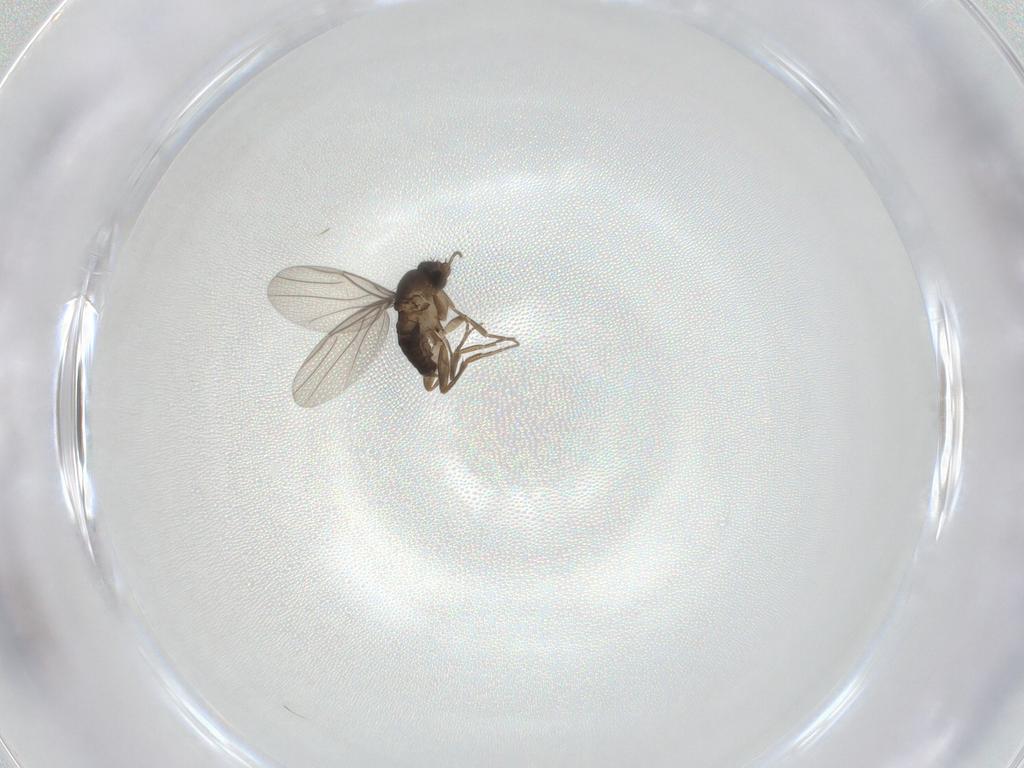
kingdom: Animalia
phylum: Arthropoda
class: Insecta
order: Diptera
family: Phoridae
